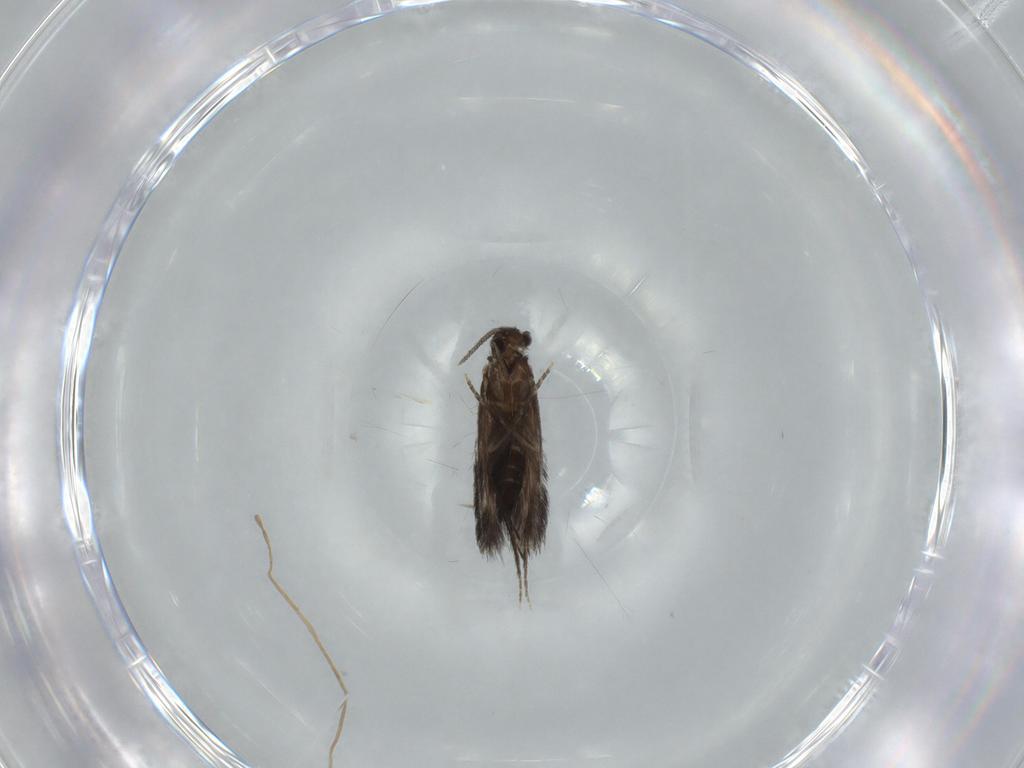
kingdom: Animalia
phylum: Arthropoda
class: Insecta
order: Trichoptera
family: Hydroptilidae
